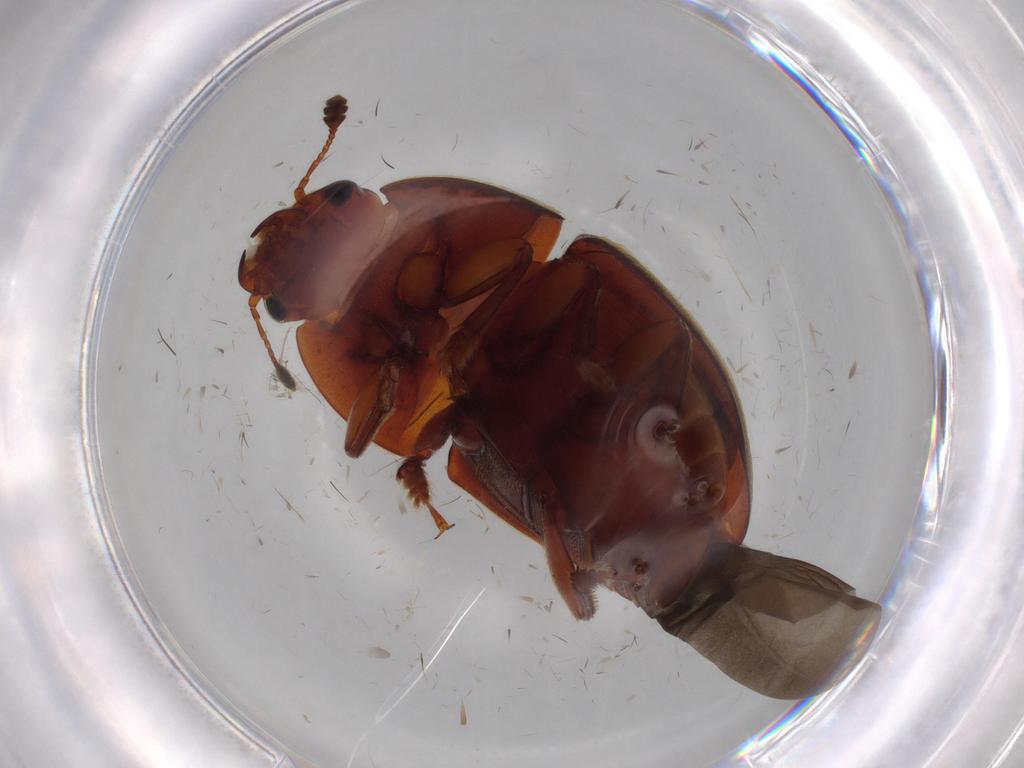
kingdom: Animalia
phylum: Arthropoda
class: Insecta
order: Coleoptera
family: Nitidulidae
